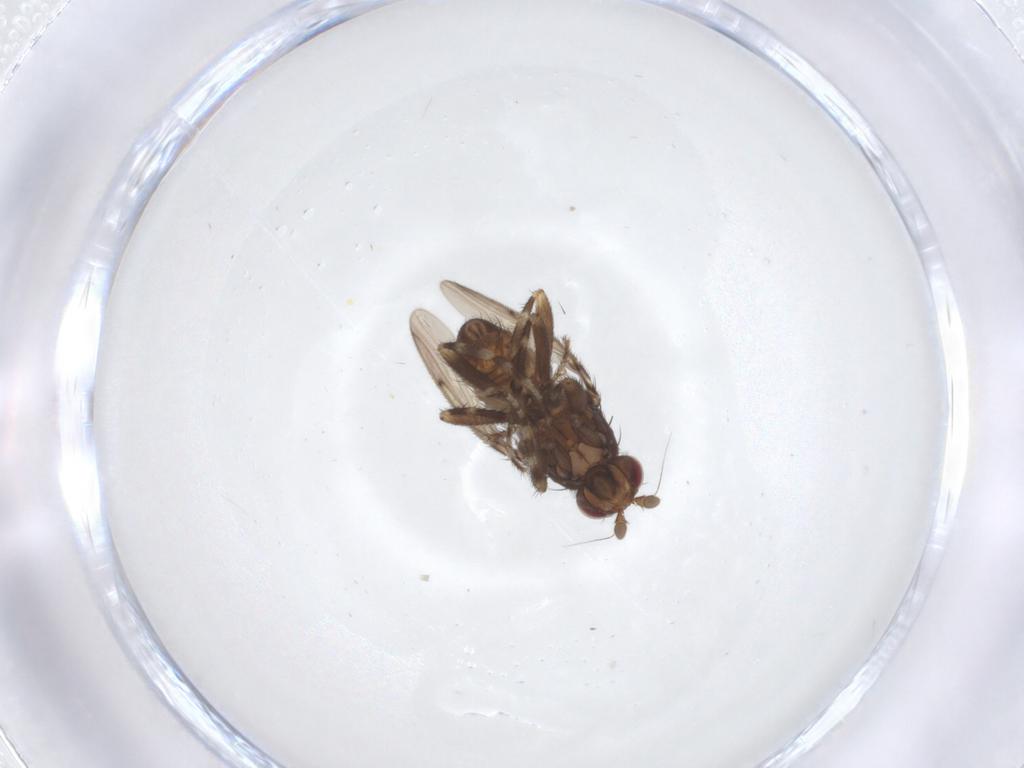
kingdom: Animalia
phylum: Arthropoda
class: Insecta
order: Diptera
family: Sphaeroceridae
